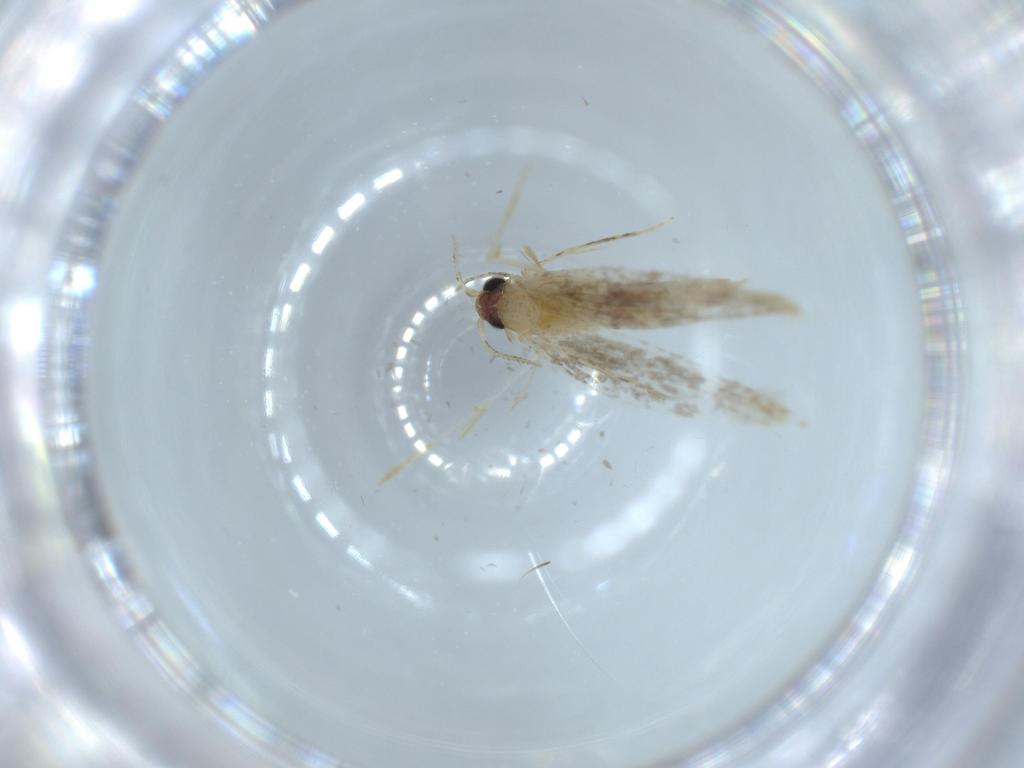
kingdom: Animalia
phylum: Arthropoda
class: Insecta
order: Lepidoptera
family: Tineidae
